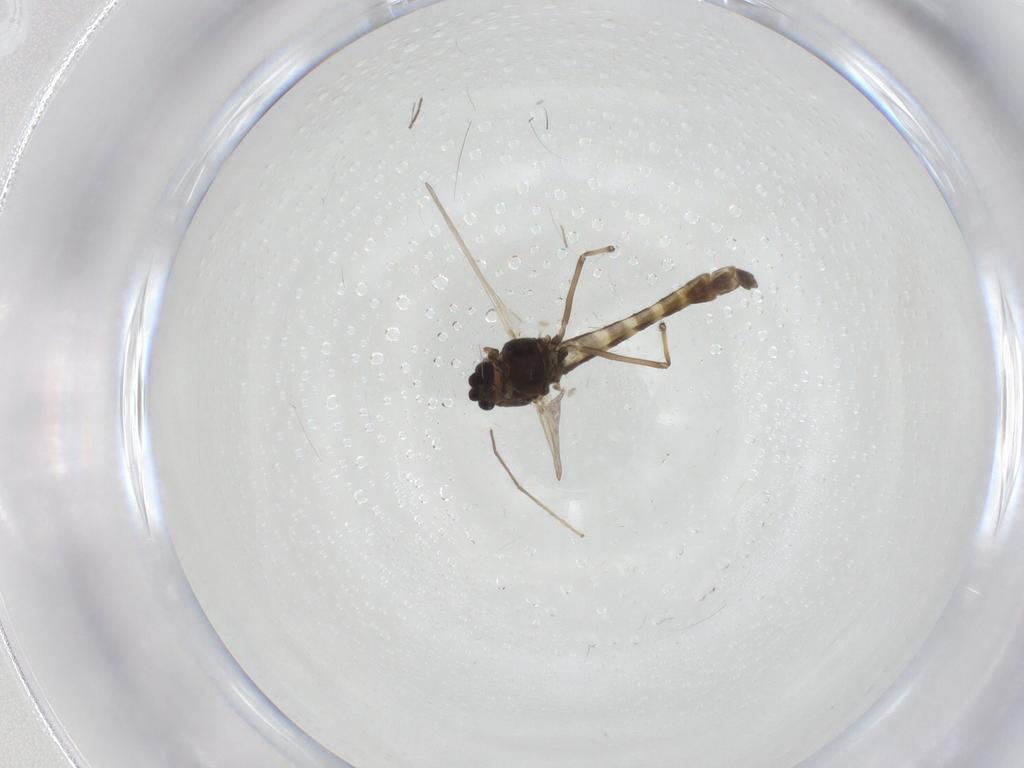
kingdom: Animalia
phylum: Arthropoda
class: Insecta
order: Diptera
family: Chironomidae
